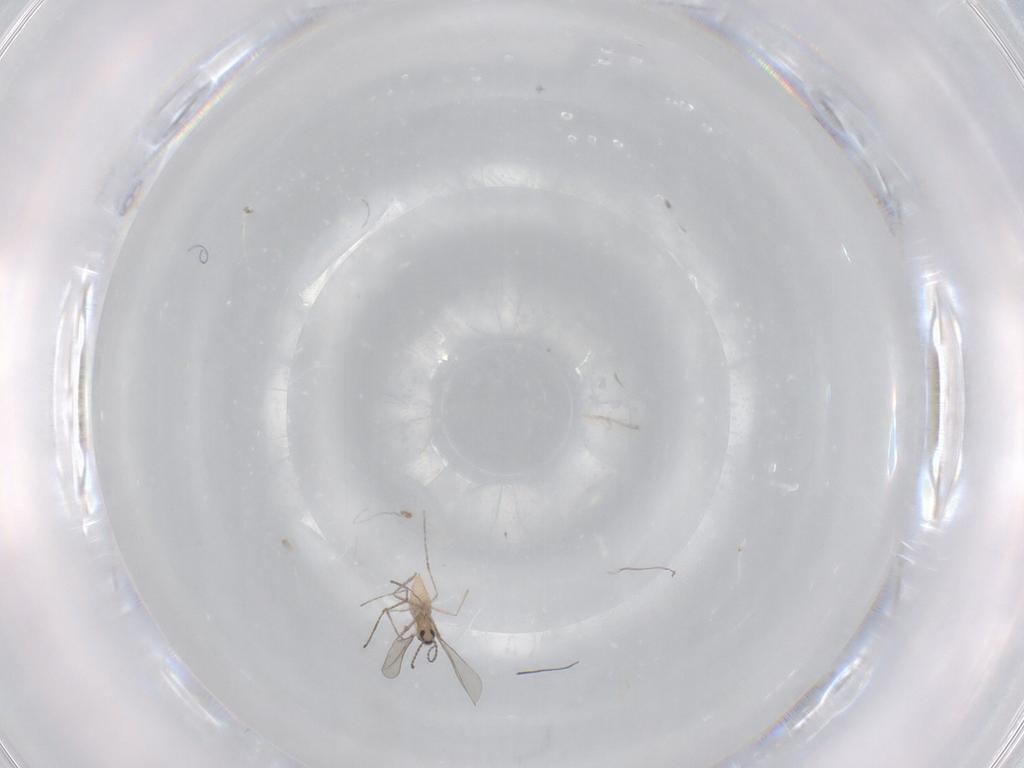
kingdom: Animalia
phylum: Arthropoda
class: Insecta
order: Diptera
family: Cecidomyiidae
